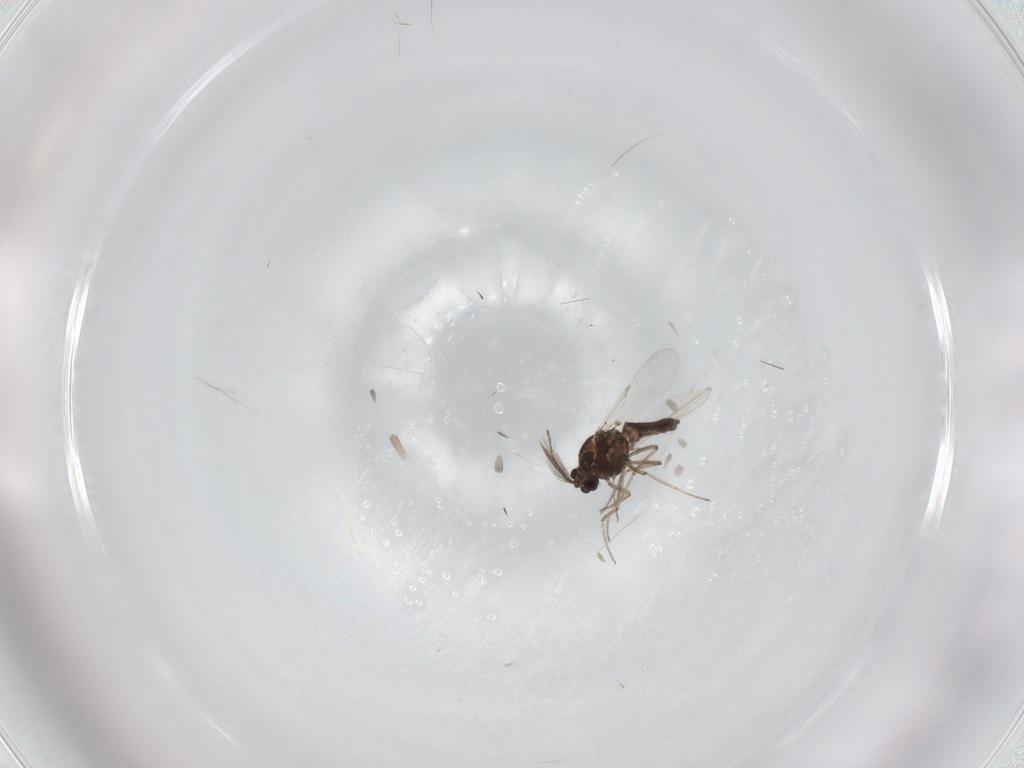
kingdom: Animalia
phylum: Arthropoda
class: Insecta
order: Diptera
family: Ceratopogonidae
